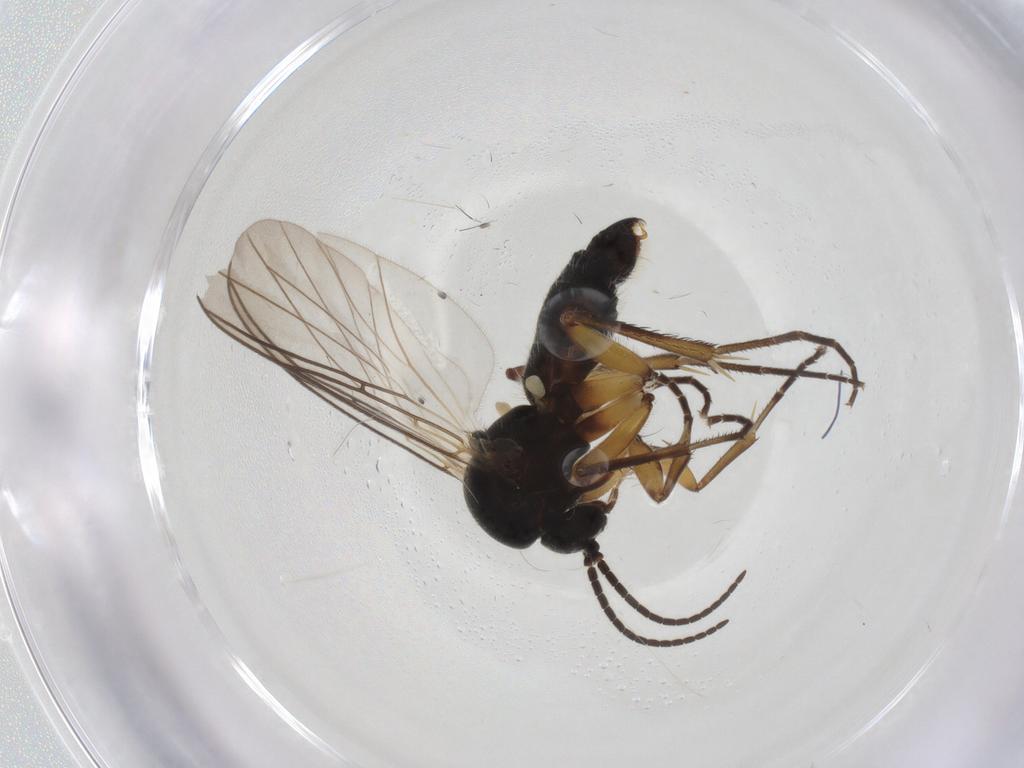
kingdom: Animalia
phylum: Arthropoda
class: Insecta
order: Diptera
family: Mycetophilidae
